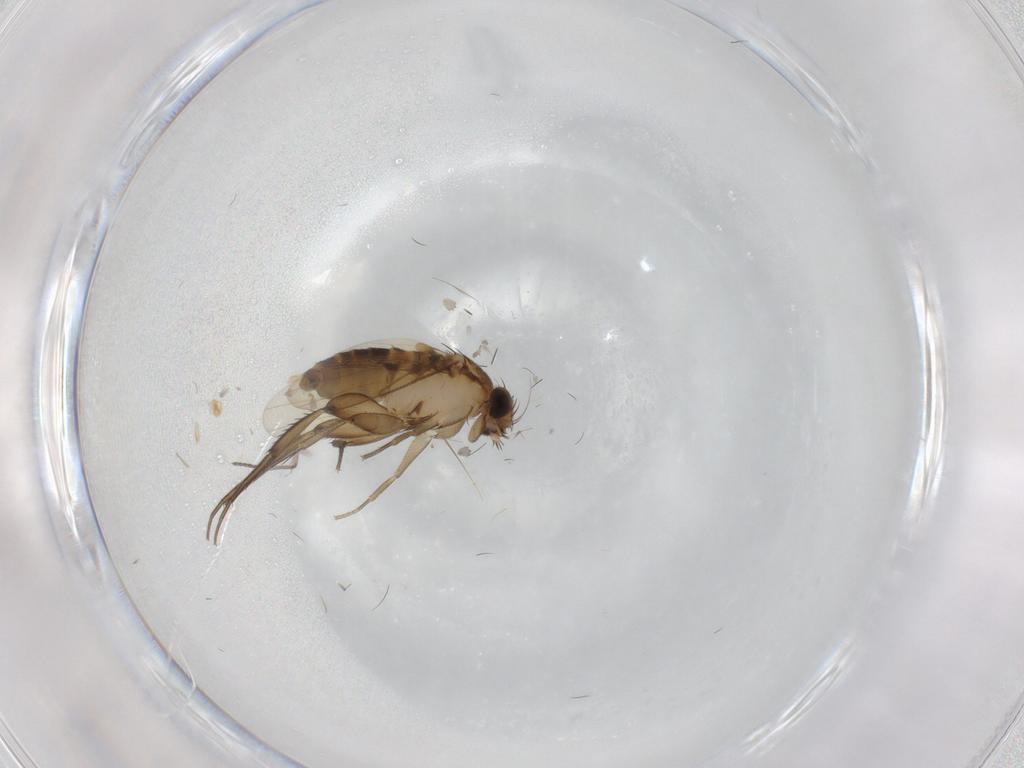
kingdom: Animalia
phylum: Arthropoda
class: Insecta
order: Diptera
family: Phoridae
